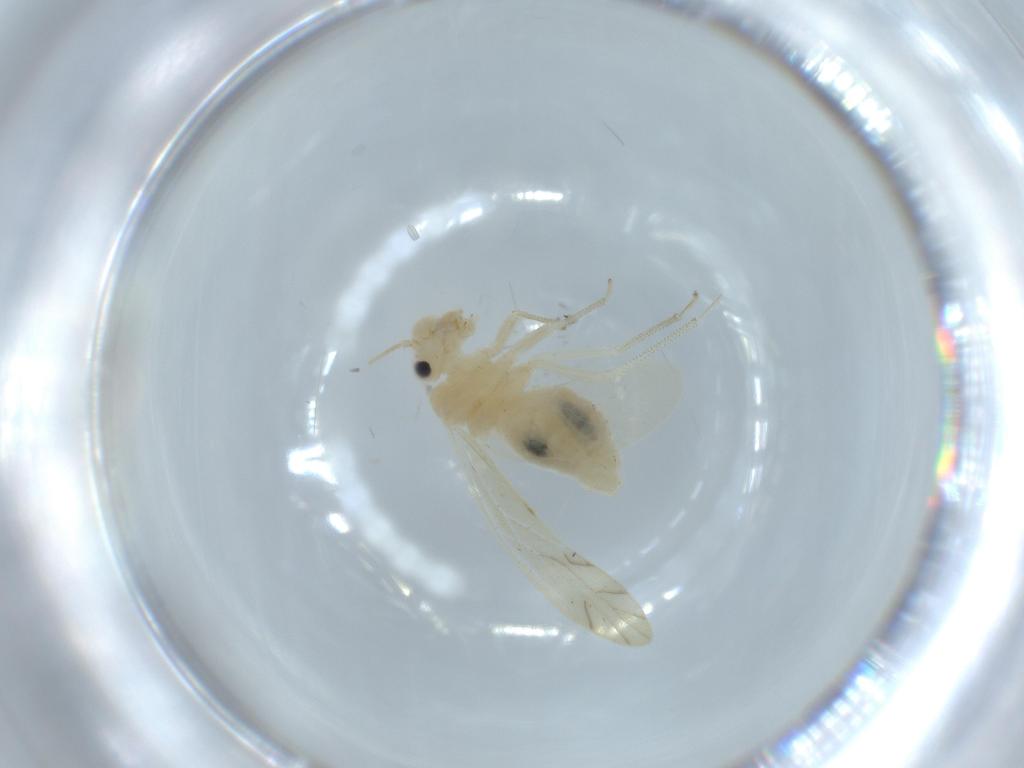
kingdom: Animalia
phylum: Arthropoda
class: Insecta
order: Psocodea
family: Caeciliusidae
